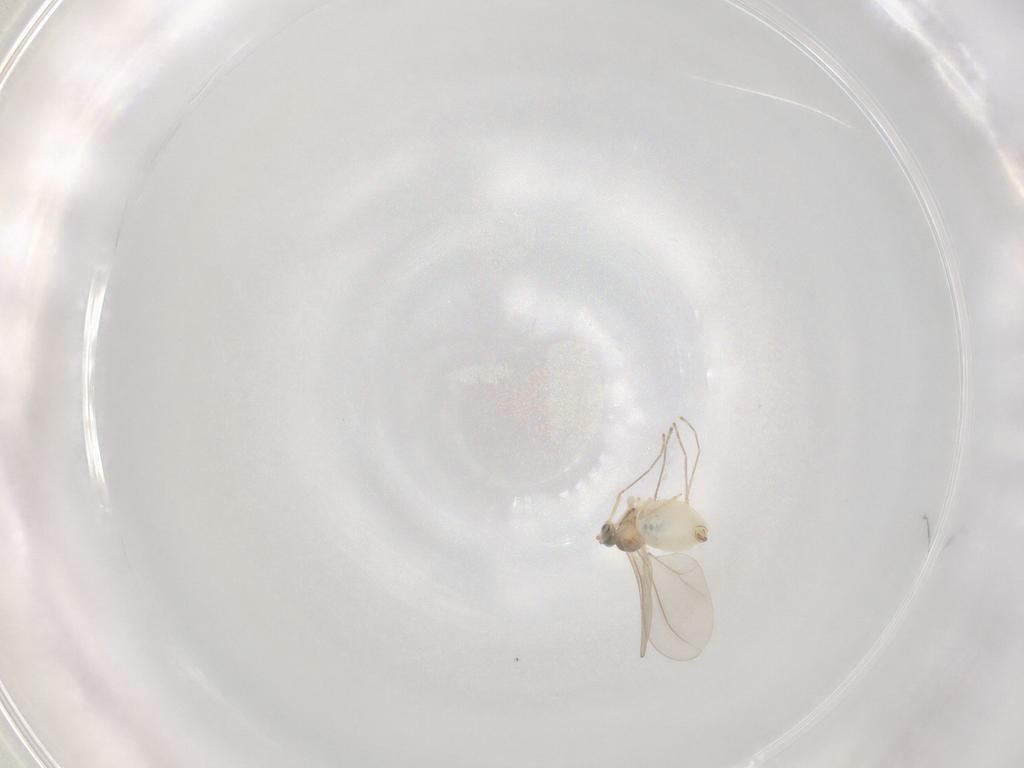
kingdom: Animalia
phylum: Arthropoda
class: Insecta
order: Diptera
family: Cecidomyiidae
